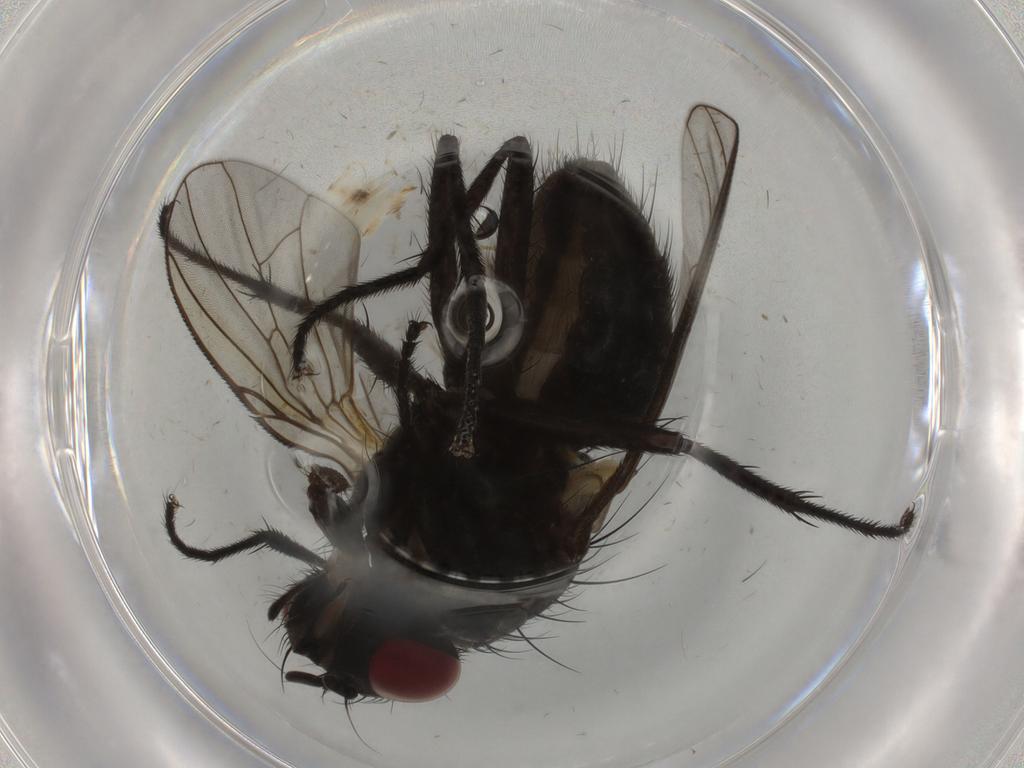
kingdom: Animalia
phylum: Arthropoda
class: Insecta
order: Diptera
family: Muscidae
